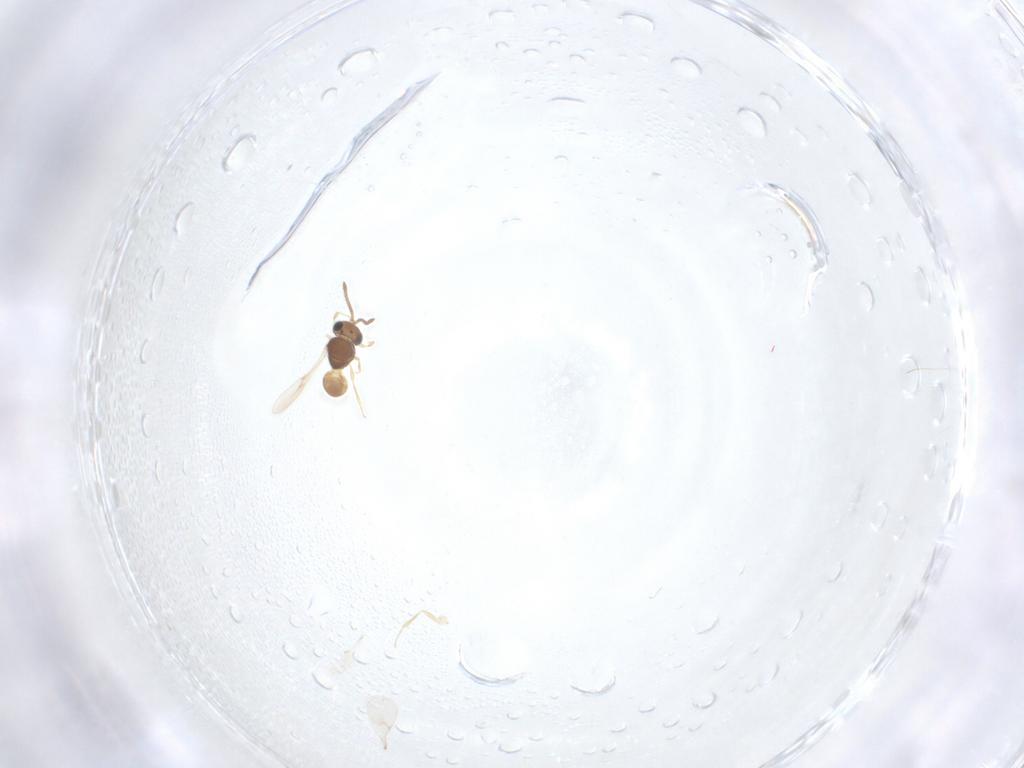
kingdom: Animalia
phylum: Arthropoda
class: Insecta
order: Hymenoptera
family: Scelionidae
